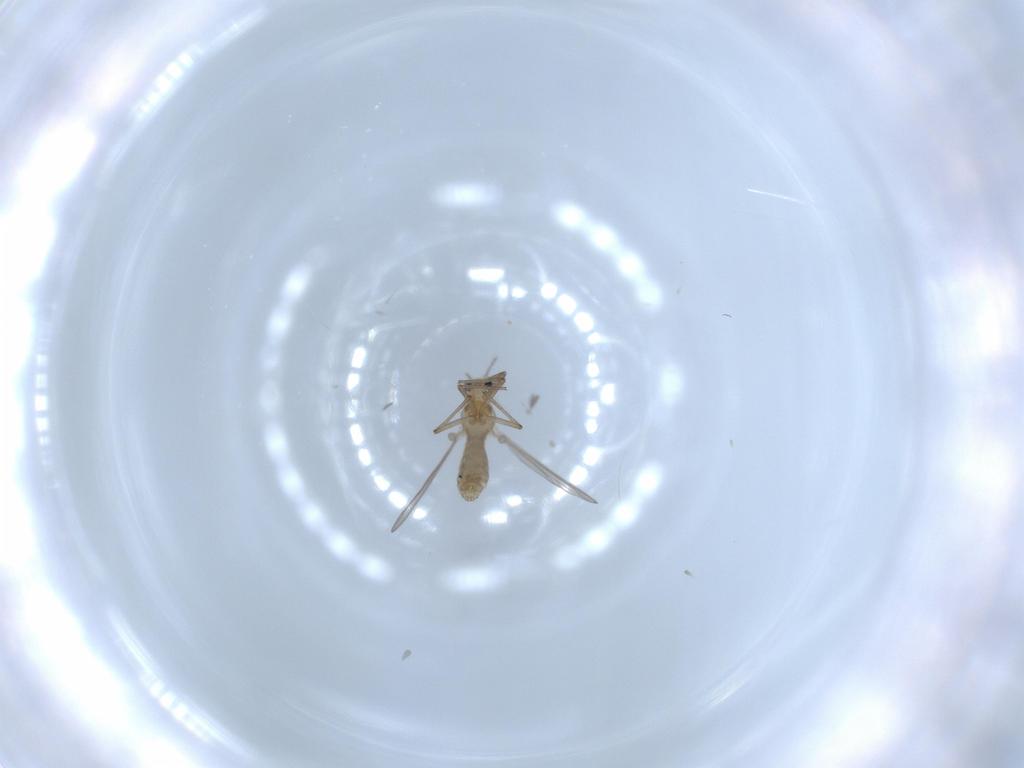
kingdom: Animalia
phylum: Arthropoda
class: Insecta
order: Diptera
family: Chironomidae
